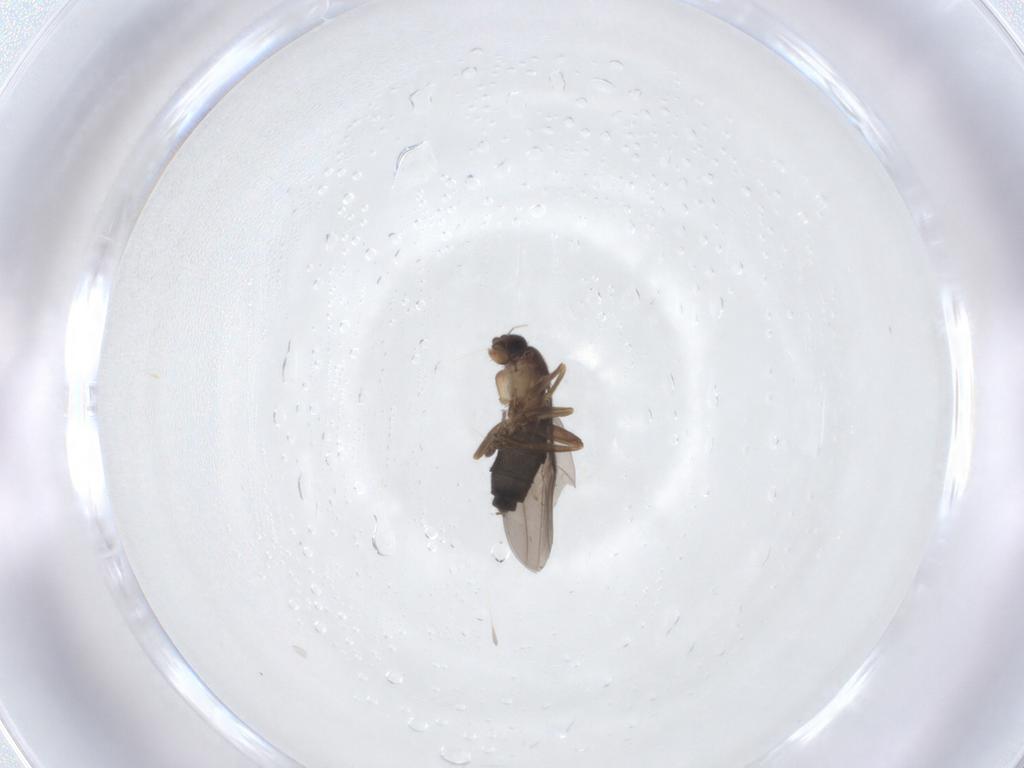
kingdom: Animalia
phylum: Arthropoda
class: Insecta
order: Diptera
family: Phoridae
